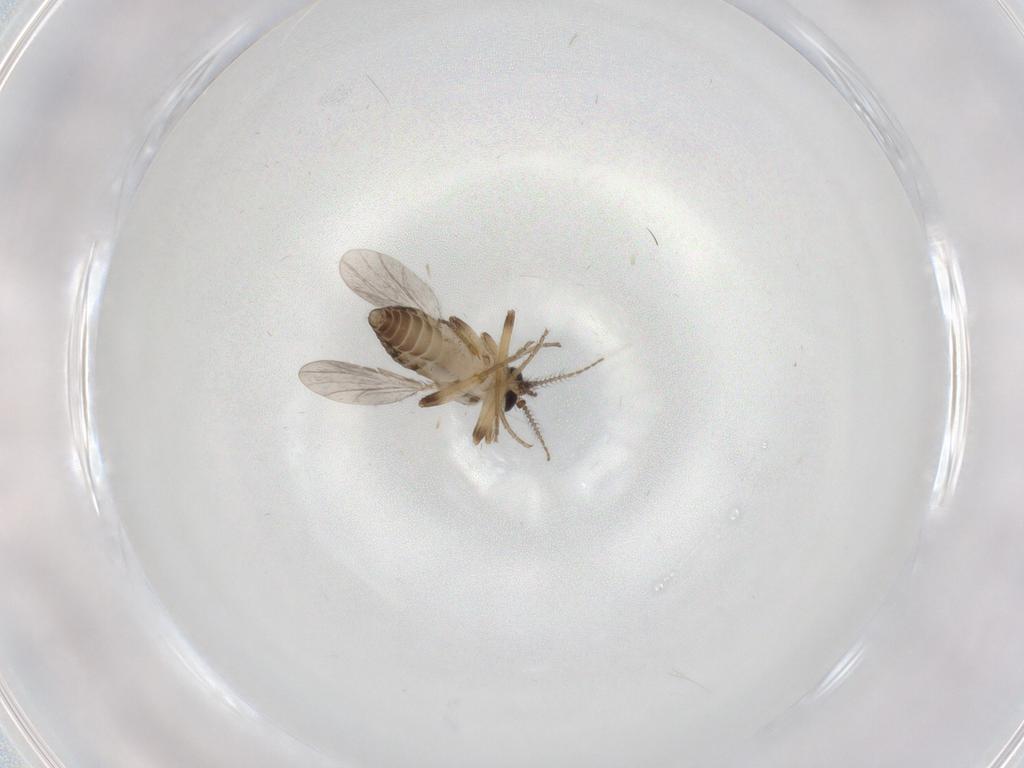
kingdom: Animalia
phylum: Arthropoda
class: Insecta
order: Diptera
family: Ceratopogonidae
